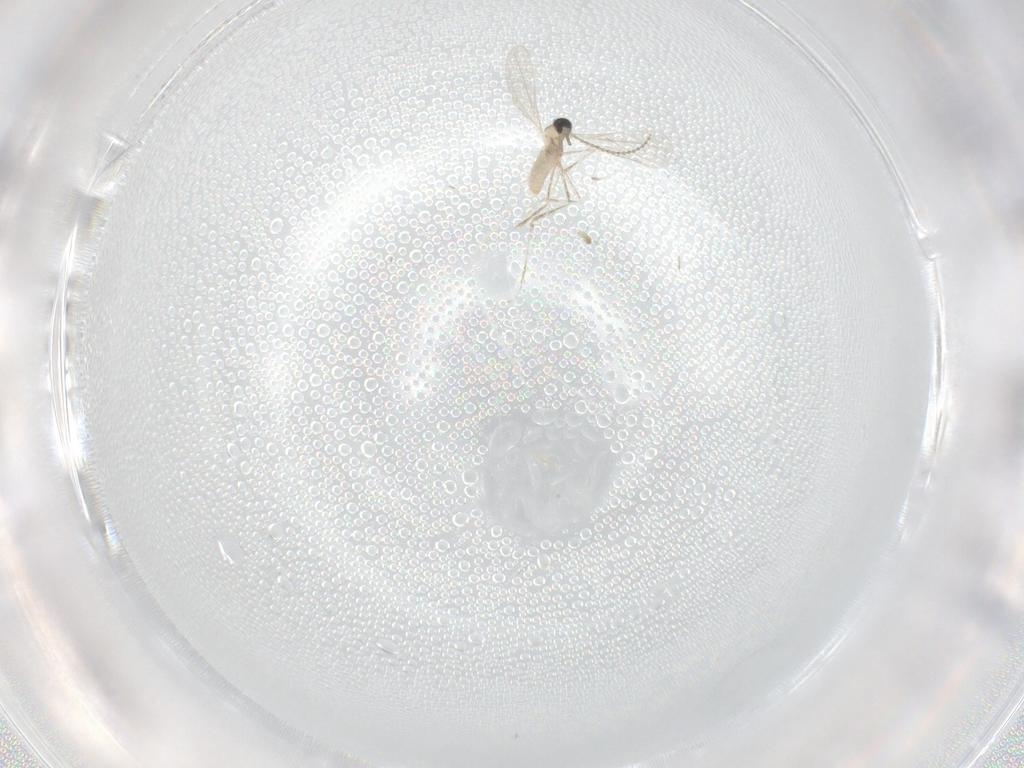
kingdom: Animalia
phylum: Arthropoda
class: Insecta
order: Diptera
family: Cecidomyiidae
